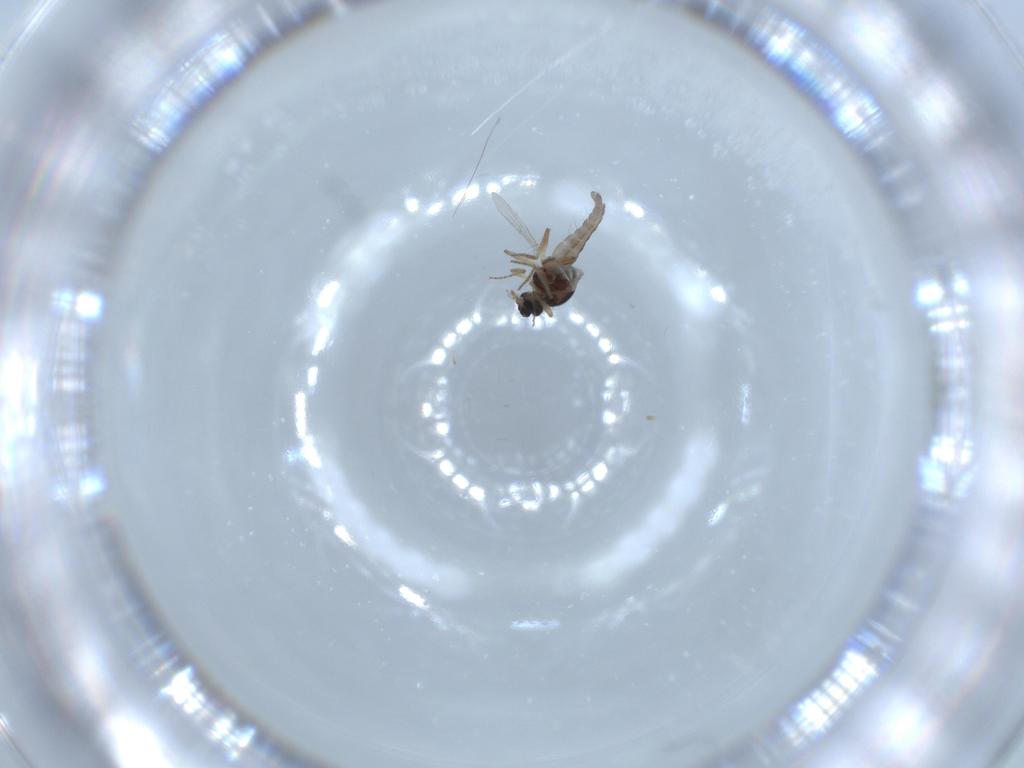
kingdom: Animalia
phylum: Arthropoda
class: Insecta
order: Diptera
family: Ceratopogonidae
